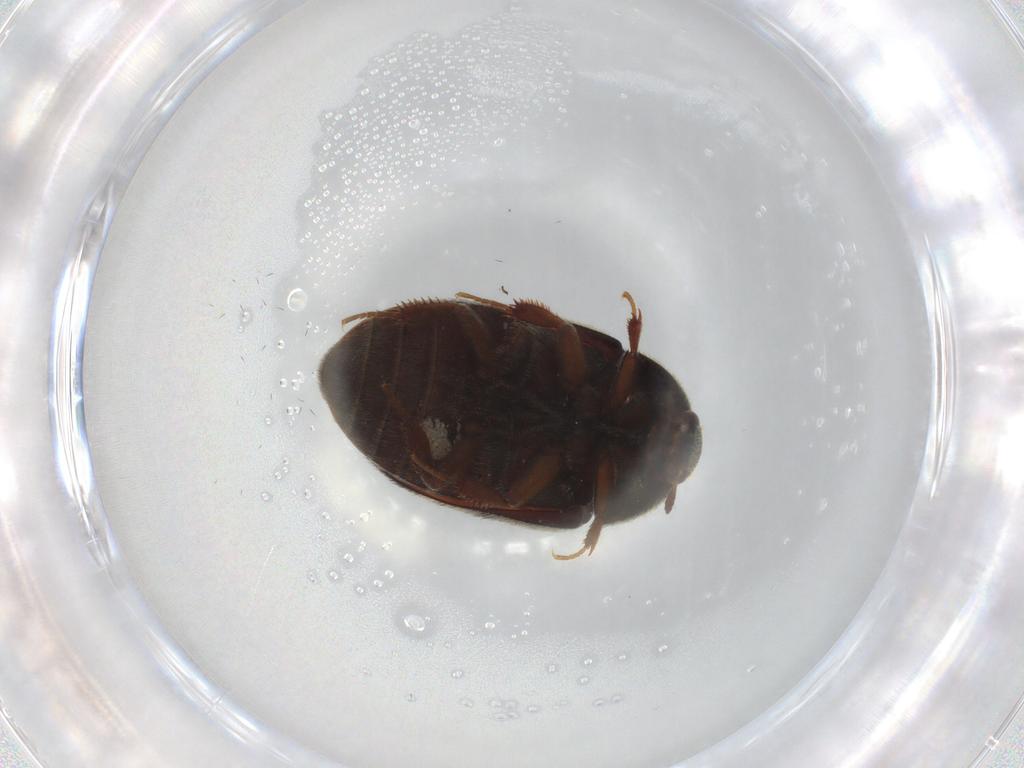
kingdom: Animalia
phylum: Arthropoda
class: Insecta
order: Coleoptera
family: Dermestidae
